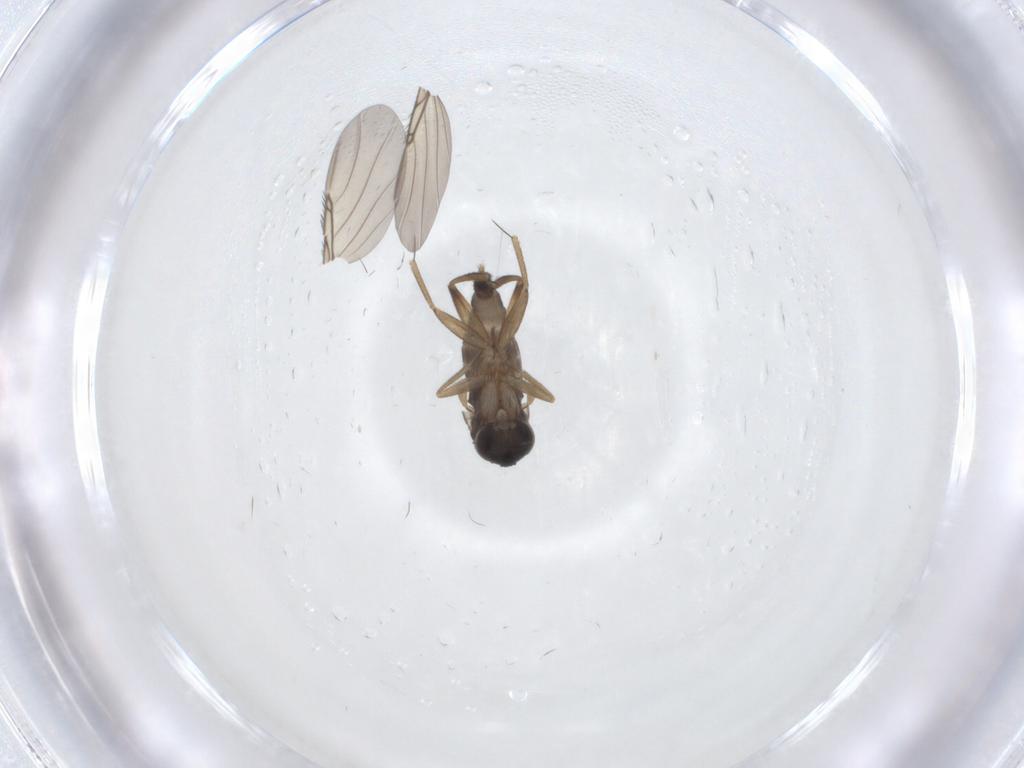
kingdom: Animalia
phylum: Arthropoda
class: Insecta
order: Diptera
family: Phoridae
